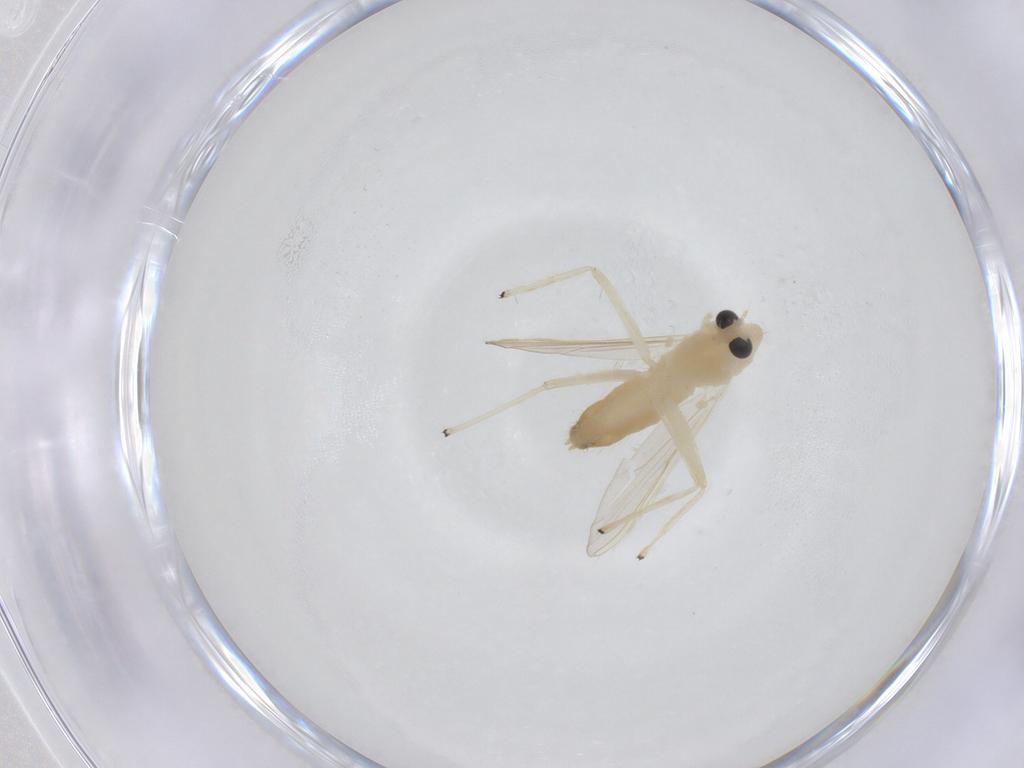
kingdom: Animalia
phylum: Arthropoda
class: Insecta
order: Diptera
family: Chironomidae
